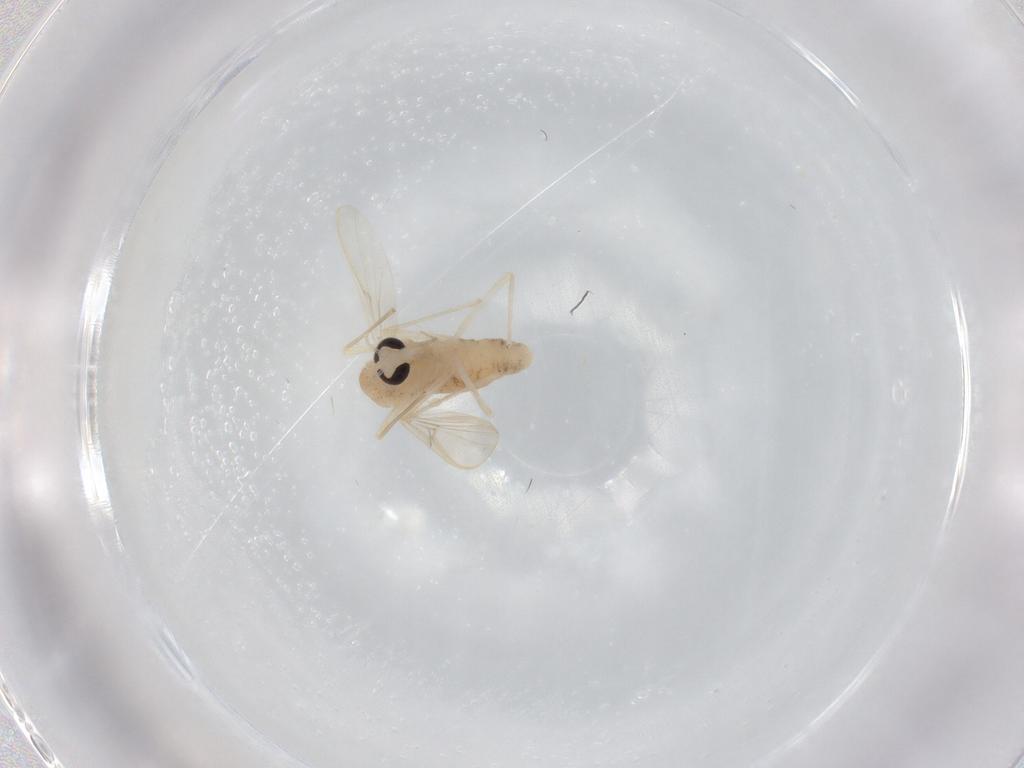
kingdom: Animalia
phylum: Arthropoda
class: Insecta
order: Diptera
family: Chironomidae
